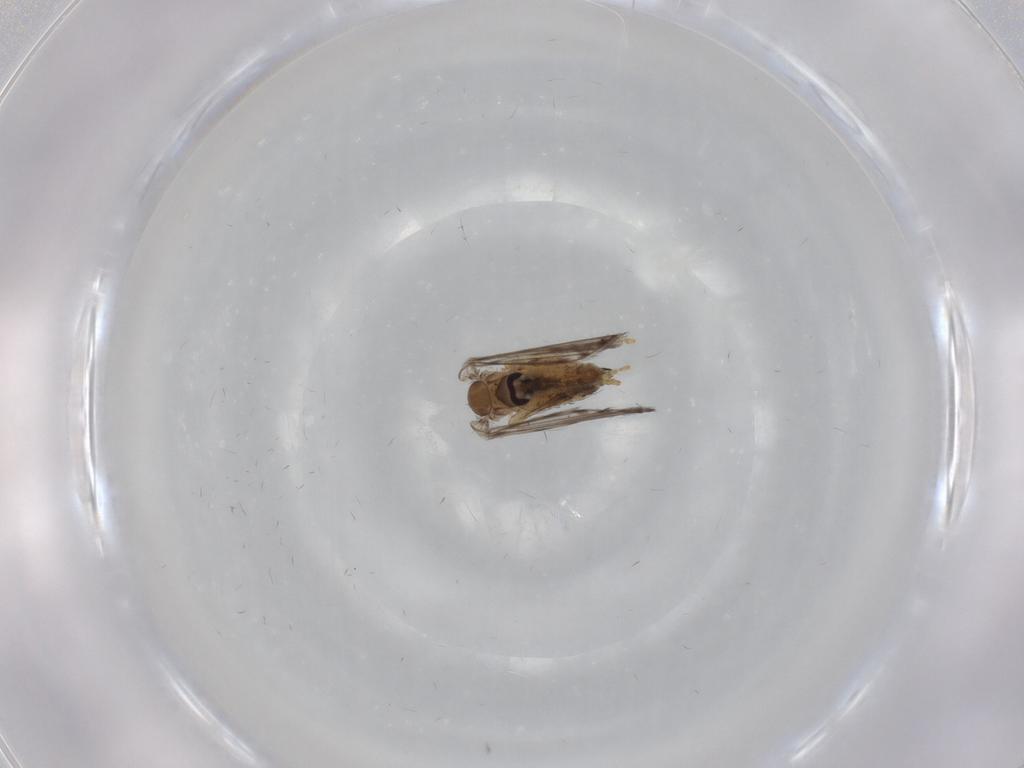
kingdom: Animalia
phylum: Arthropoda
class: Insecta
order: Diptera
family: Psychodidae
